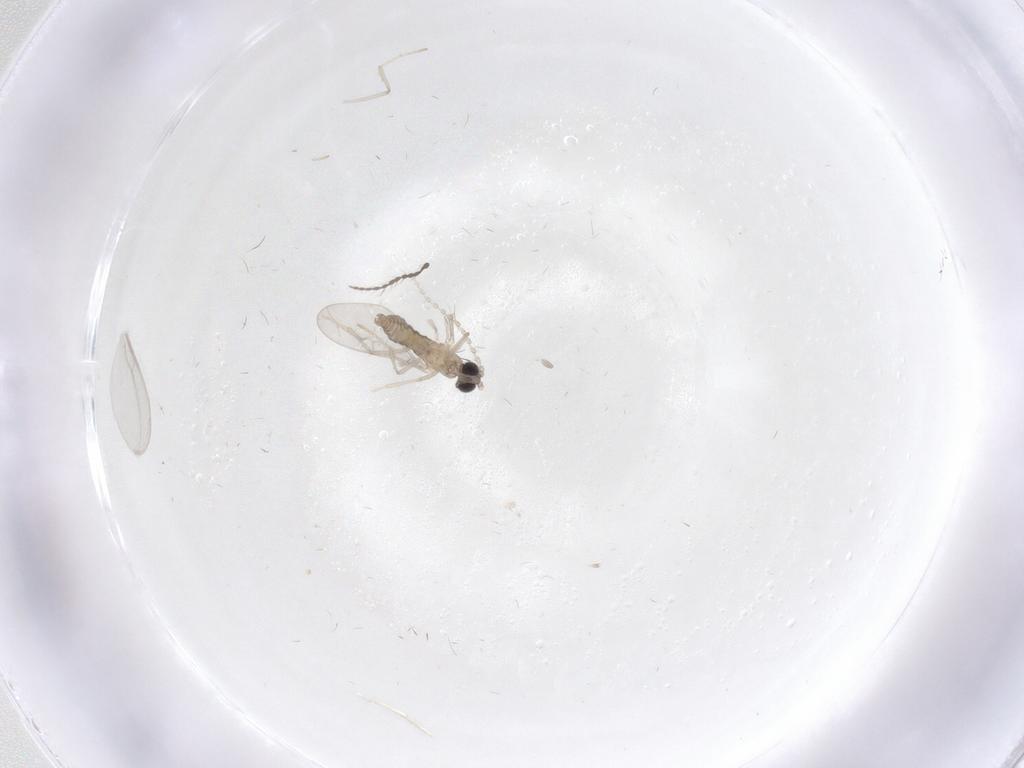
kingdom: Animalia
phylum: Arthropoda
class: Insecta
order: Diptera
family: Cecidomyiidae
